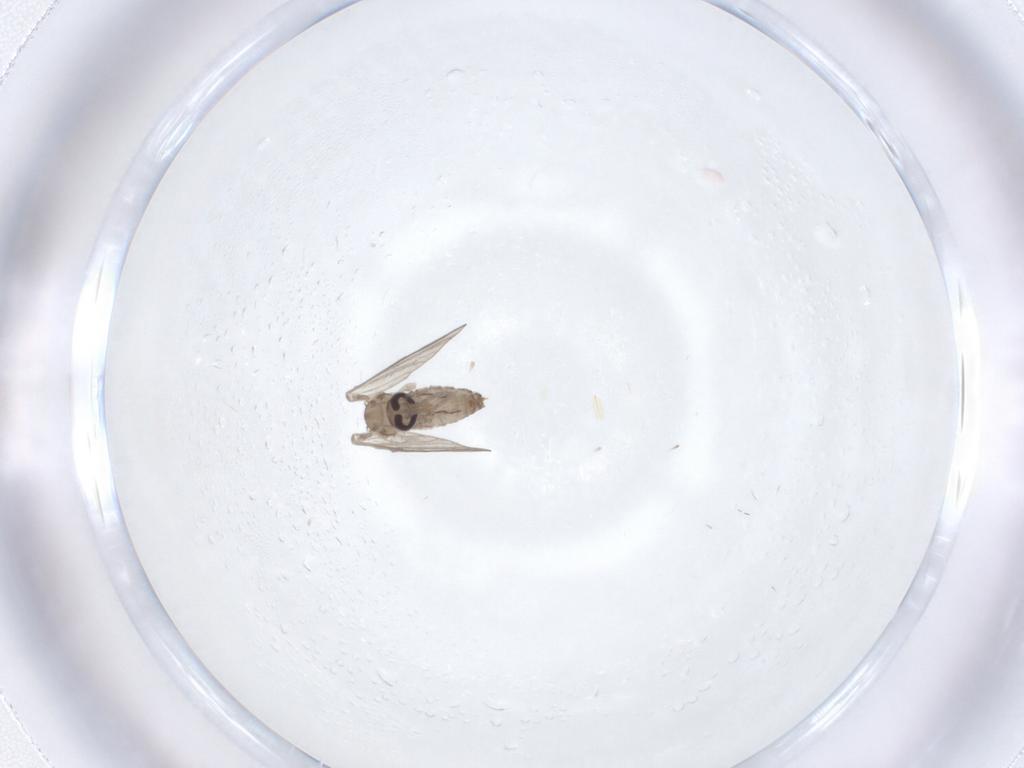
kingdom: Animalia
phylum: Arthropoda
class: Insecta
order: Diptera
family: Psychodidae
